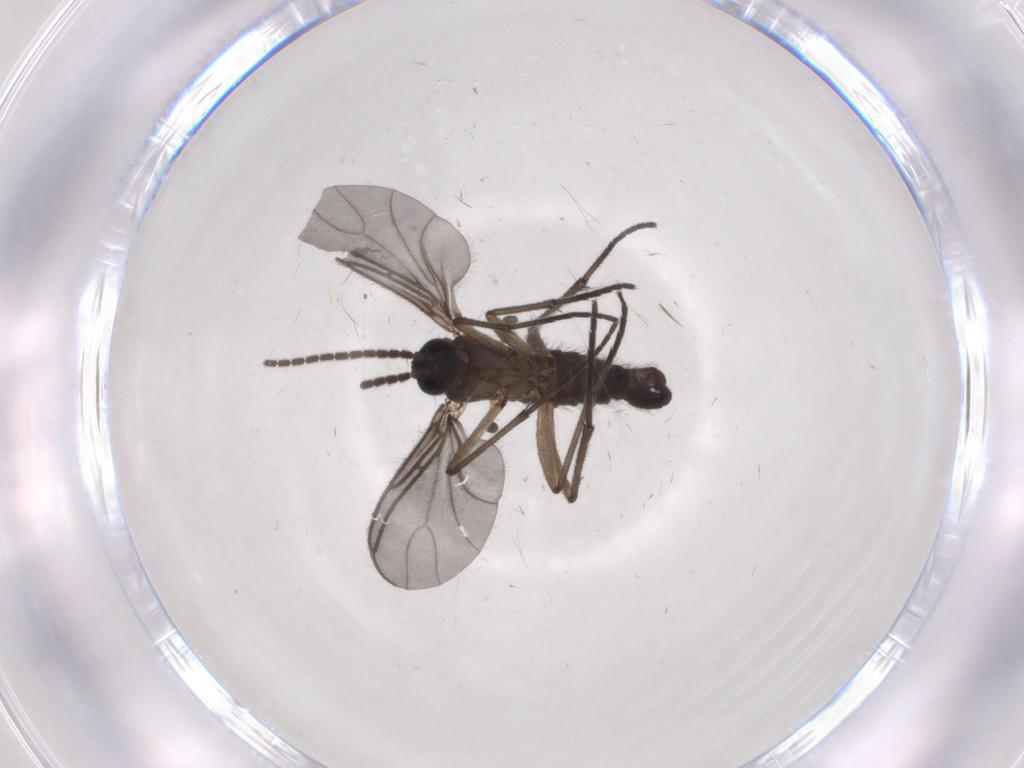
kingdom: Animalia
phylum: Arthropoda
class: Insecta
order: Diptera
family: Sciaridae
